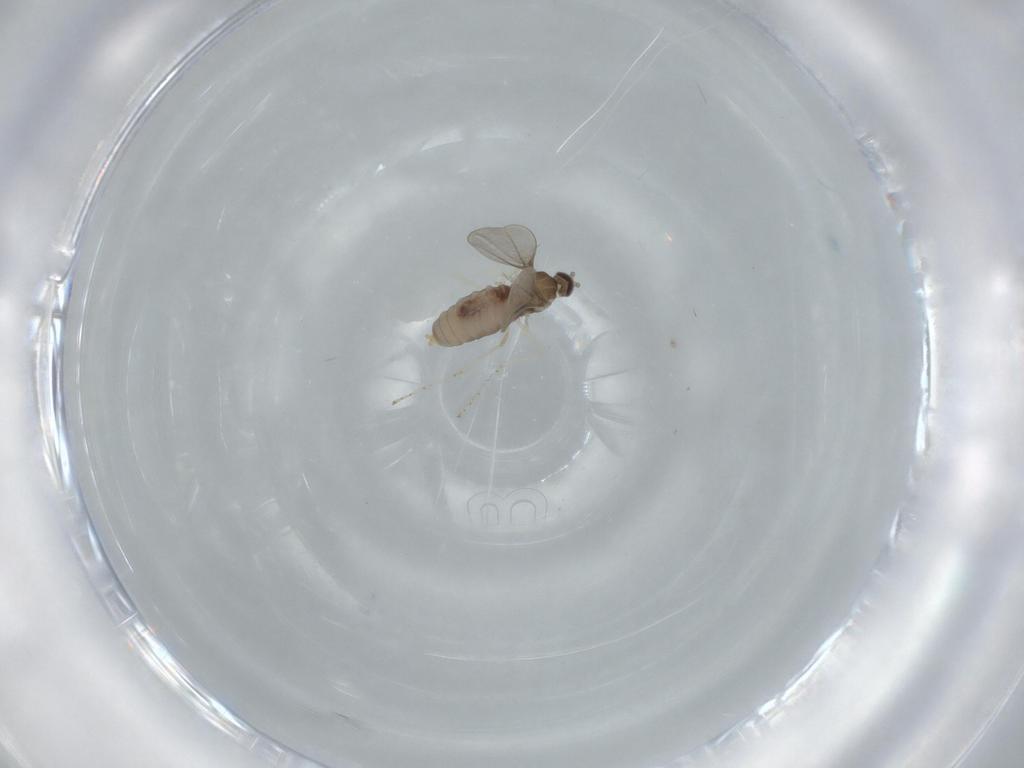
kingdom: Animalia
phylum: Arthropoda
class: Insecta
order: Diptera
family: Cecidomyiidae
